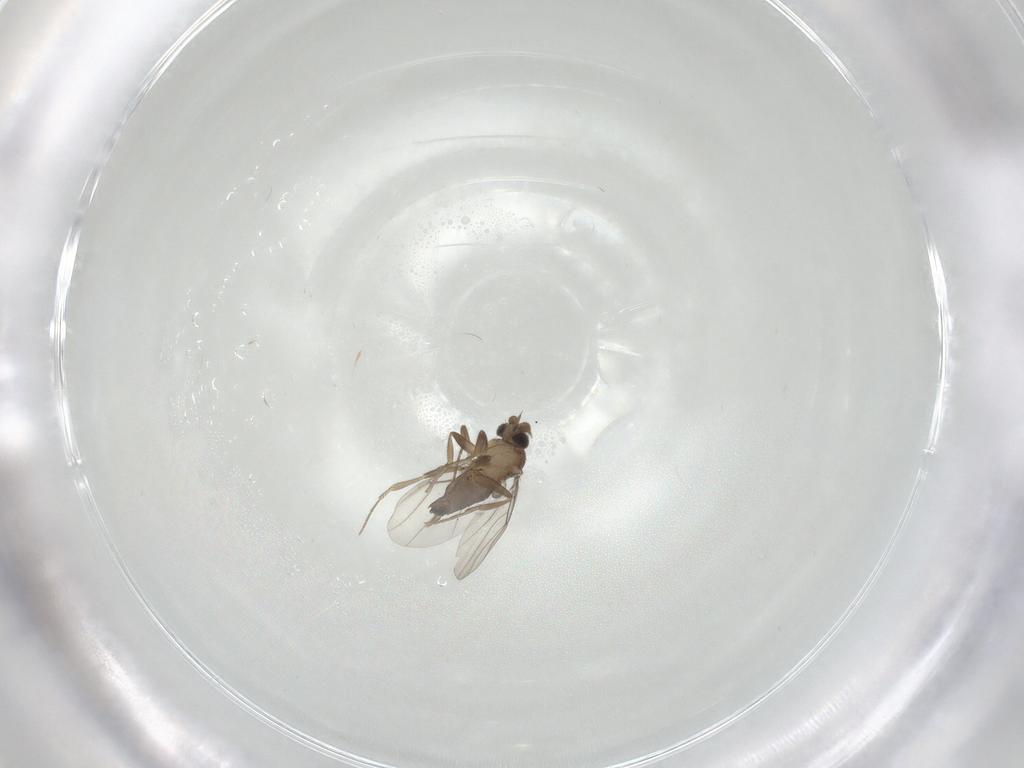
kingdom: Animalia
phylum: Arthropoda
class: Insecta
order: Diptera
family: Phoridae
